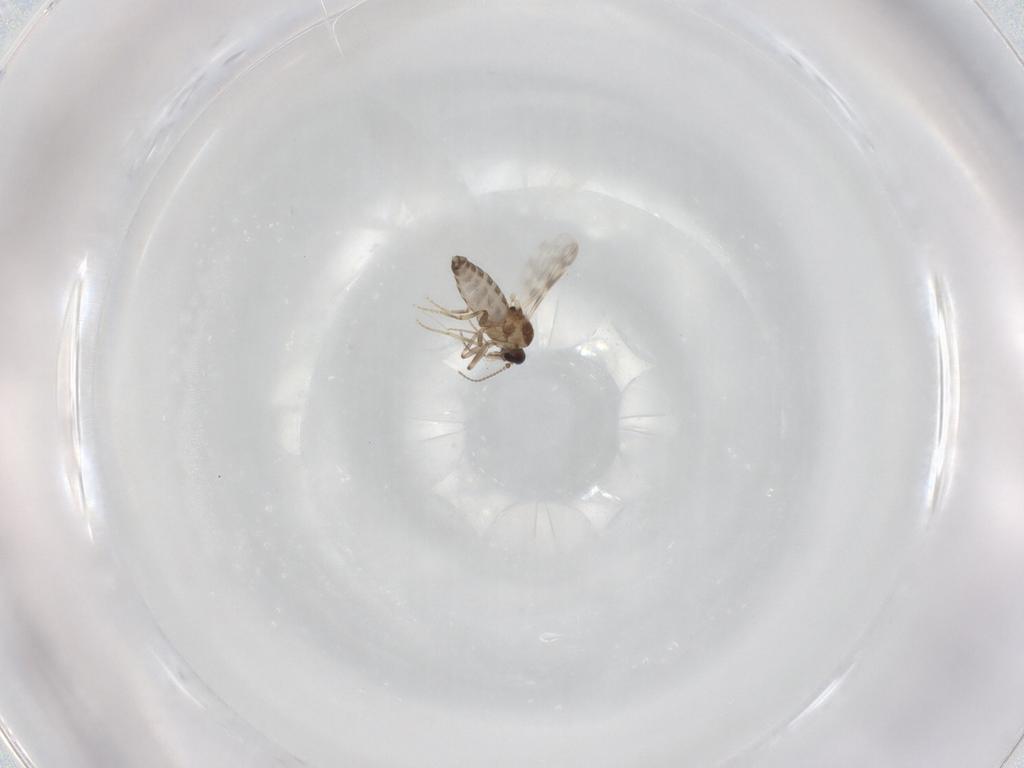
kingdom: Animalia
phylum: Arthropoda
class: Insecta
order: Diptera
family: Ceratopogonidae
